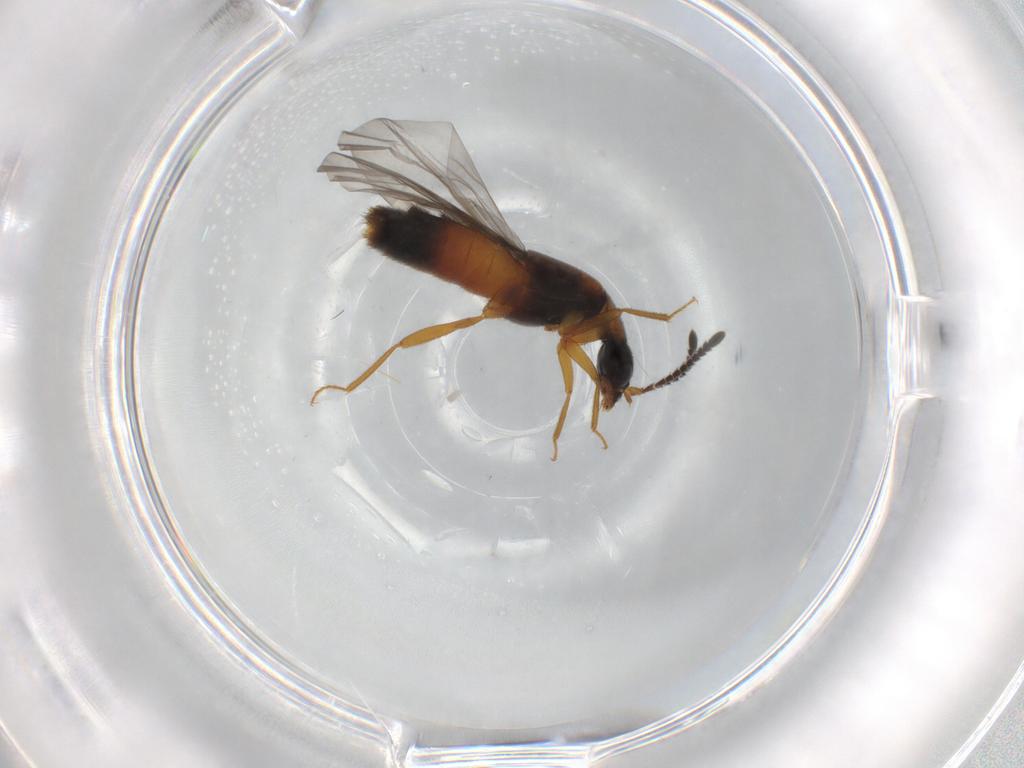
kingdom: Animalia
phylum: Arthropoda
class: Insecta
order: Coleoptera
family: Staphylinidae
